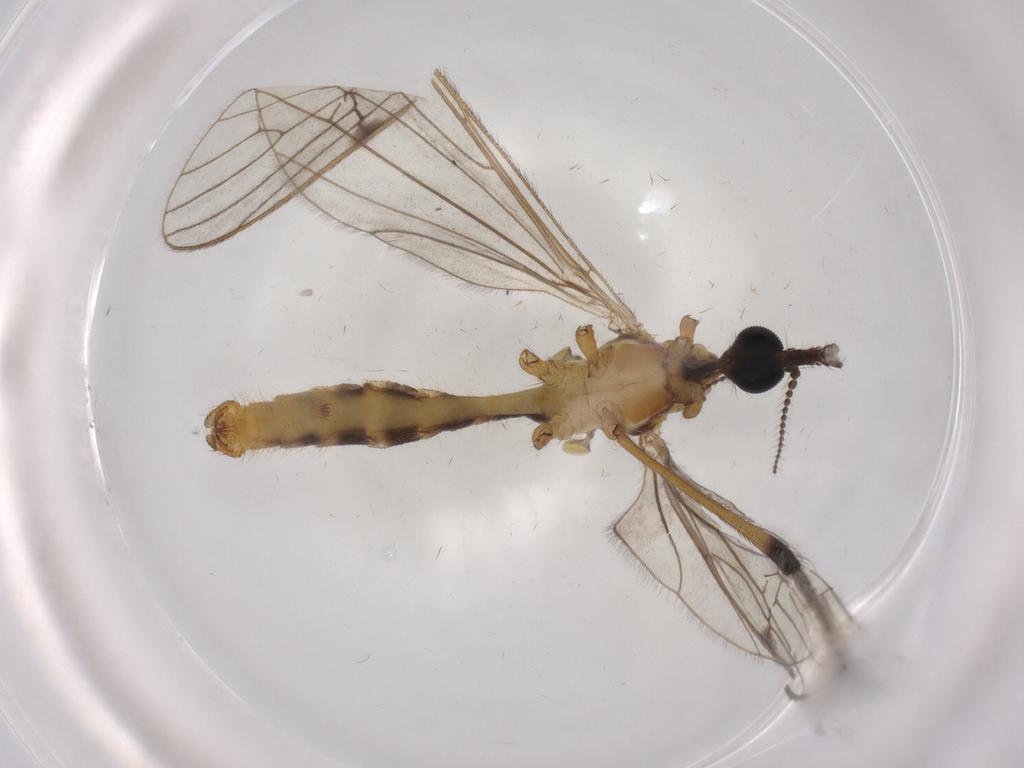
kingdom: Animalia
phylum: Arthropoda
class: Insecta
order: Diptera
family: Limoniidae
